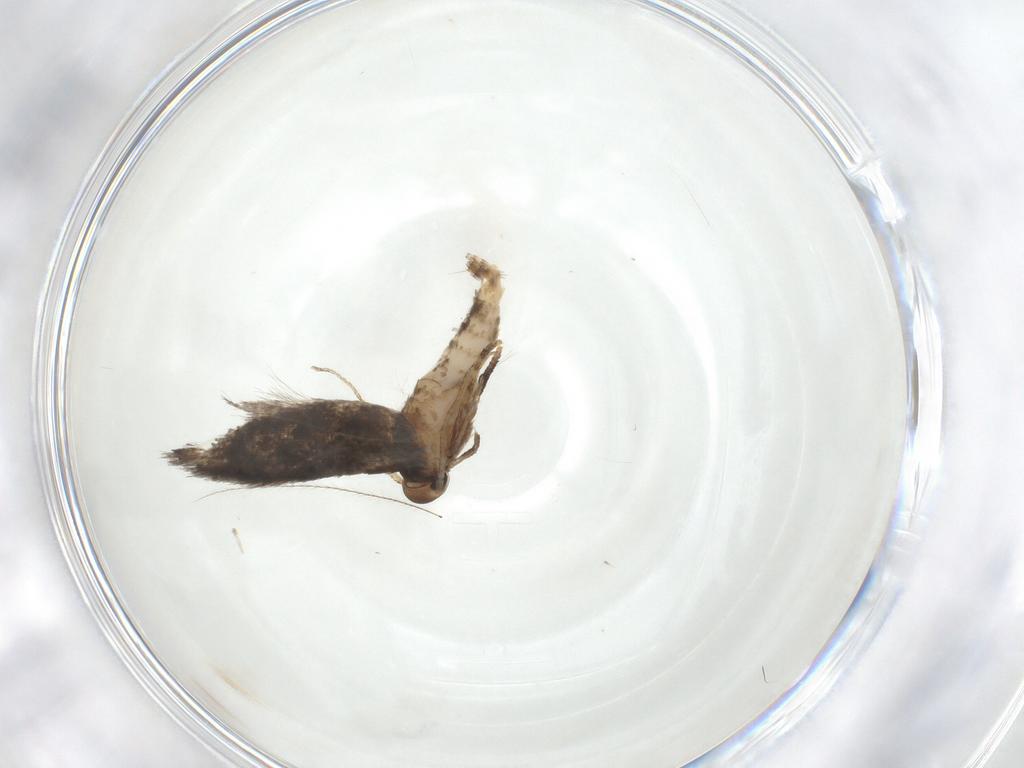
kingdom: Animalia
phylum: Arthropoda
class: Insecta
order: Lepidoptera
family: Elachistidae
